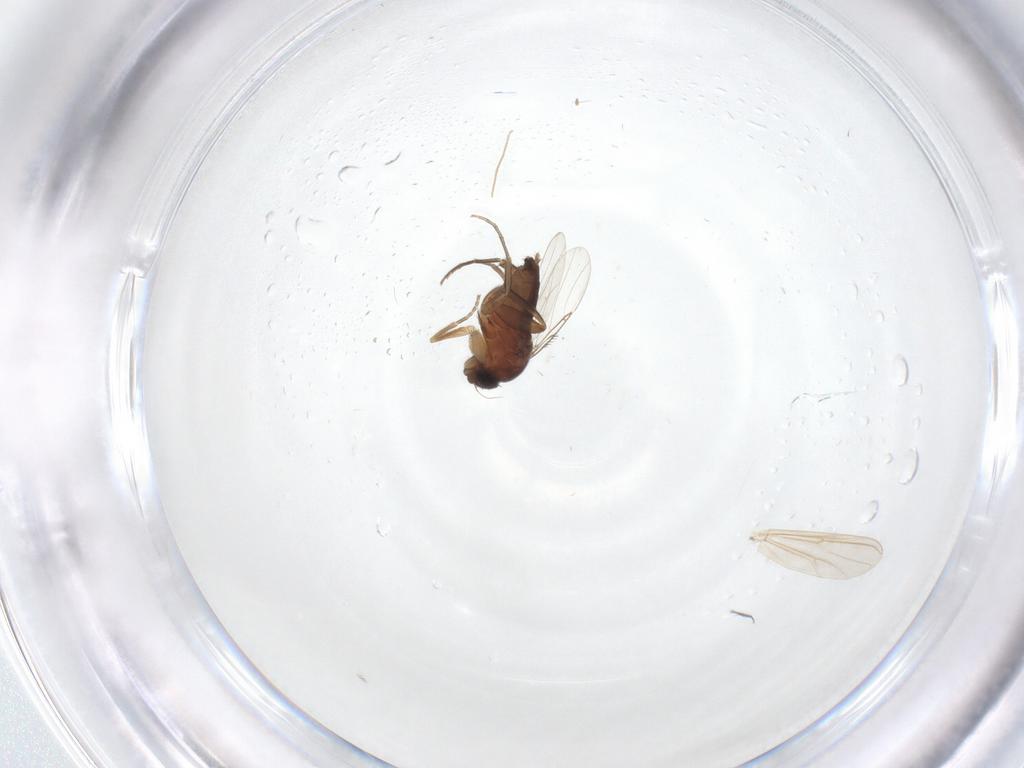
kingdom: Animalia
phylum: Arthropoda
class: Insecta
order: Diptera
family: Phoridae
